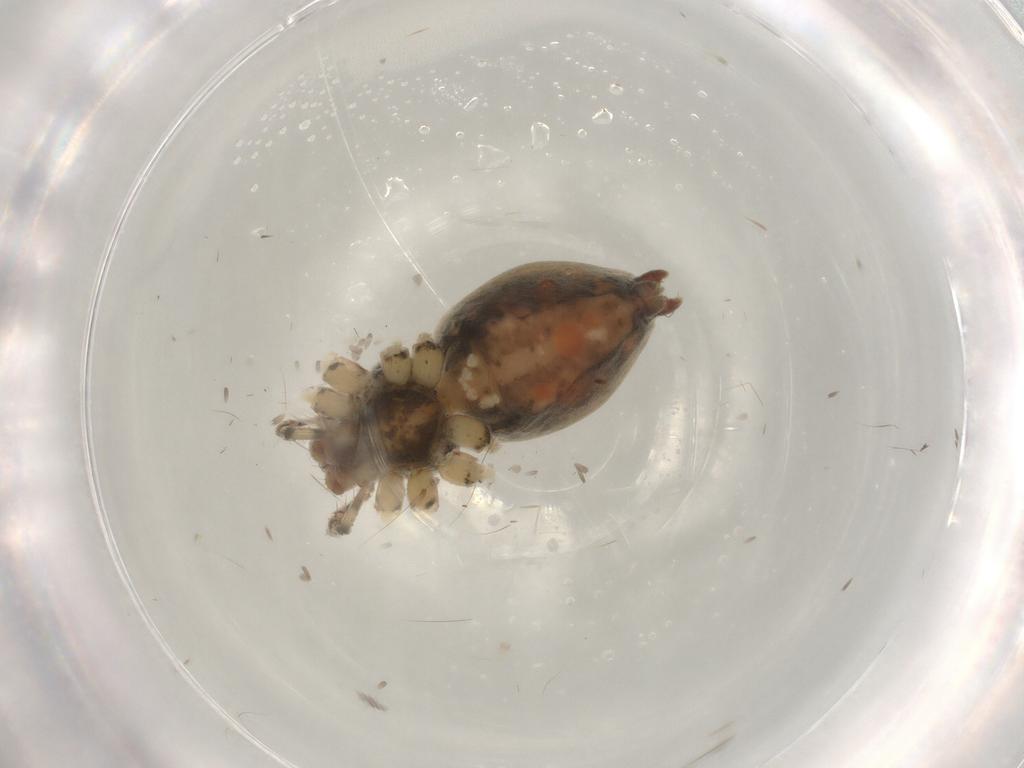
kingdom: Animalia
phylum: Arthropoda
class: Arachnida
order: Araneae
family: Pisauridae
